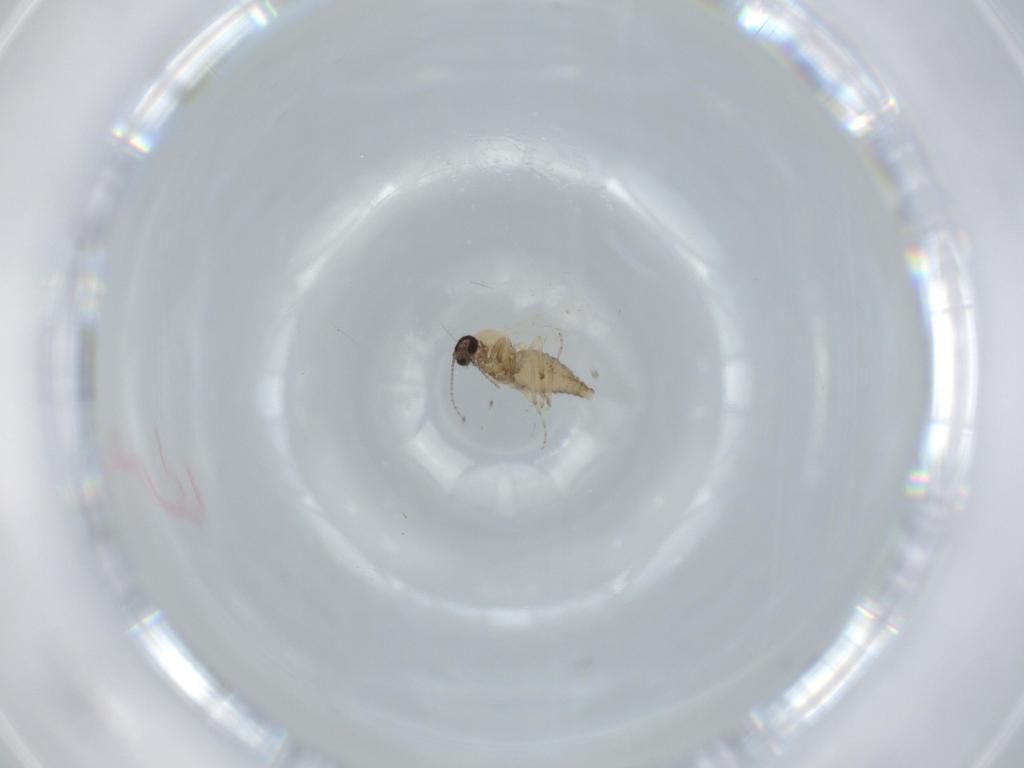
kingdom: Animalia
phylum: Arthropoda
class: Insecta
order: Diptera
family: Ceratopogonidae
